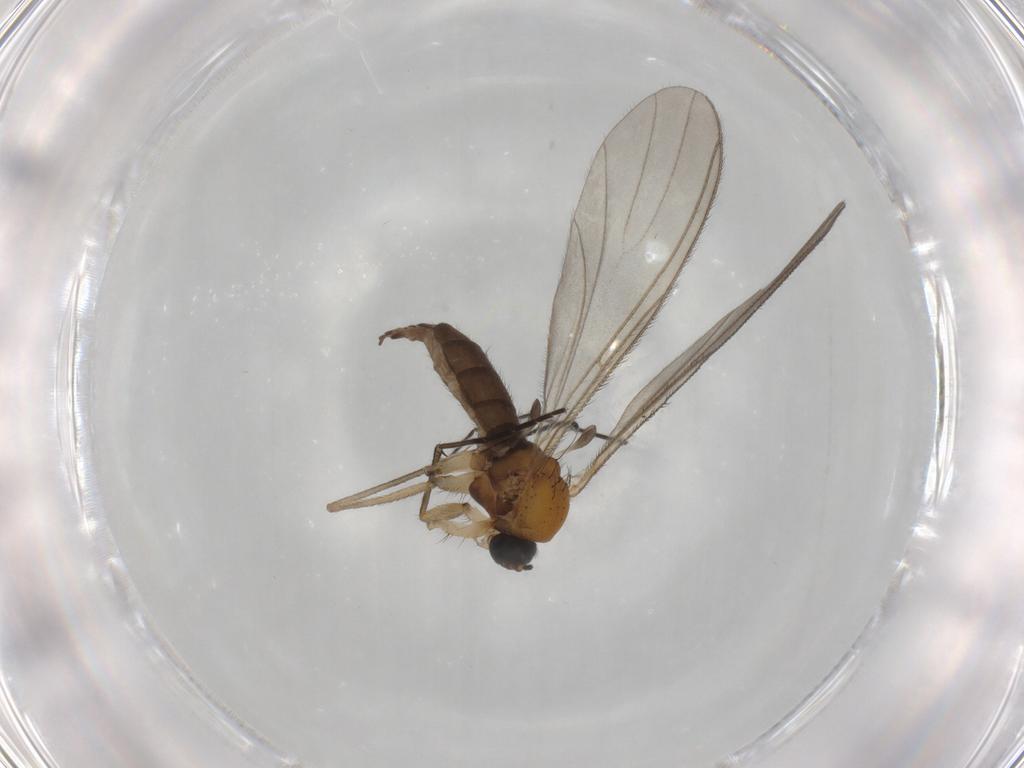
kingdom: Animalia
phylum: Arthropoda
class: Insecta
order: Diptera
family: Sciaridae
